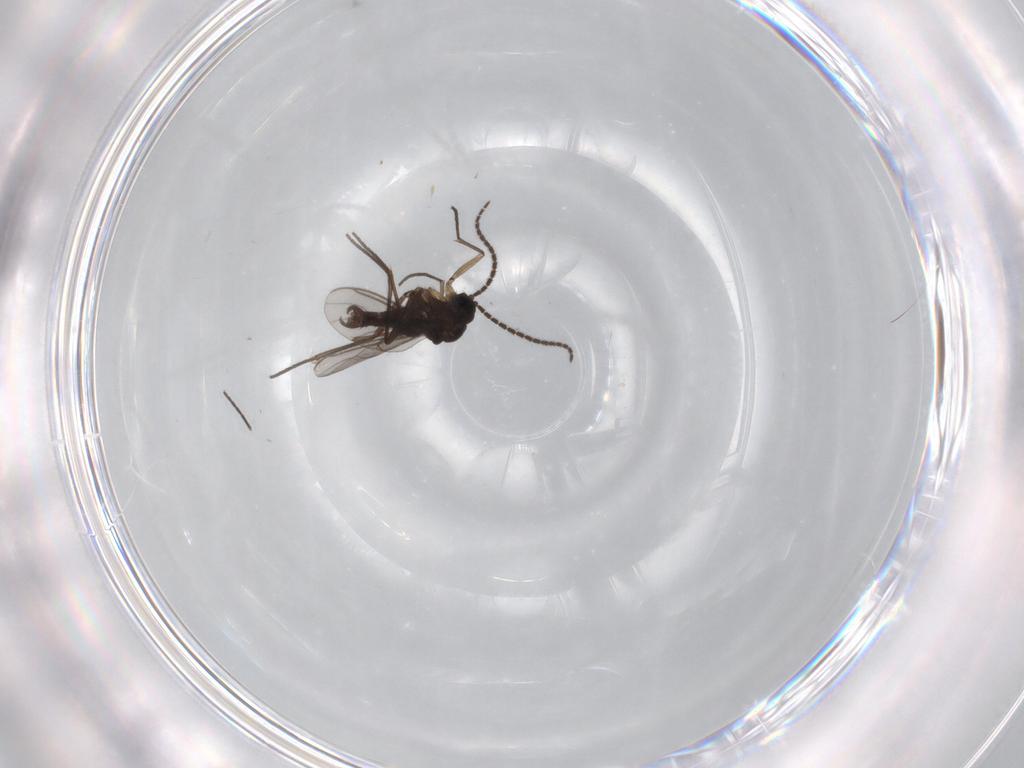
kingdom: Animalia
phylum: Arthropoda
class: Insecta
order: Diptera
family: Sciaridae
